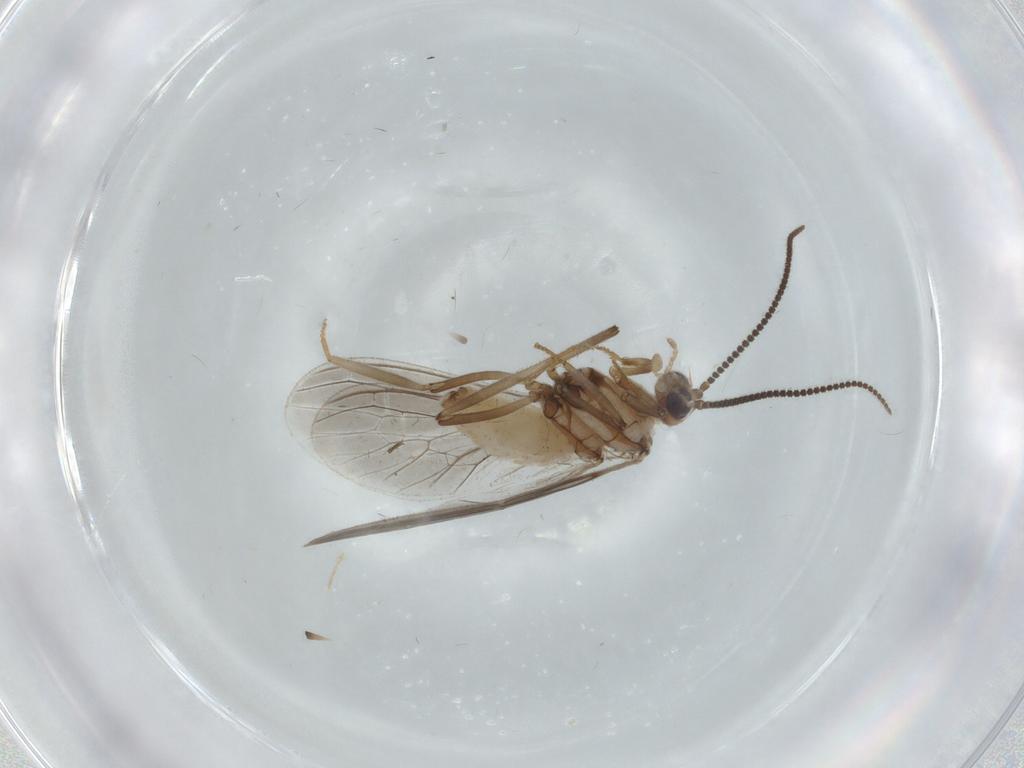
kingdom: Animalia
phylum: Arthropoda
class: Insecta
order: Neuroptera
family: Coniopterygidae
